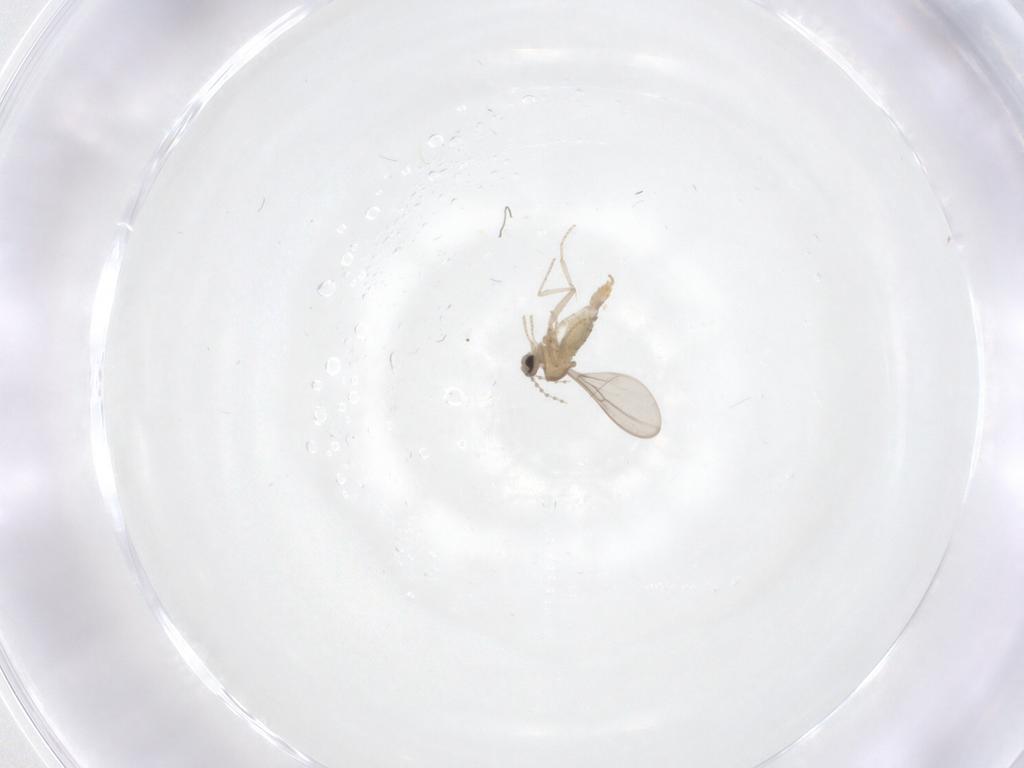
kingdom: Animalia
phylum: Arthropoda
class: Insecta
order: Diptera
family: Cecidomyiidae
